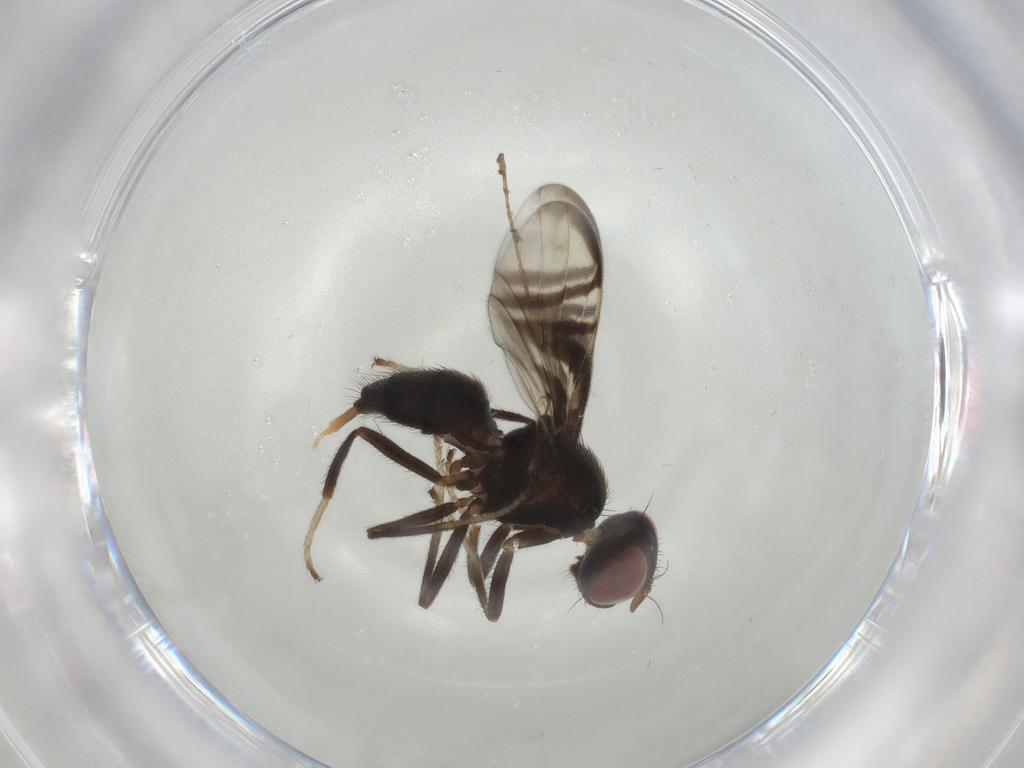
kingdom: Animalia
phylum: Arthropoda
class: Insecta
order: Diptera
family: Platystomatidae
